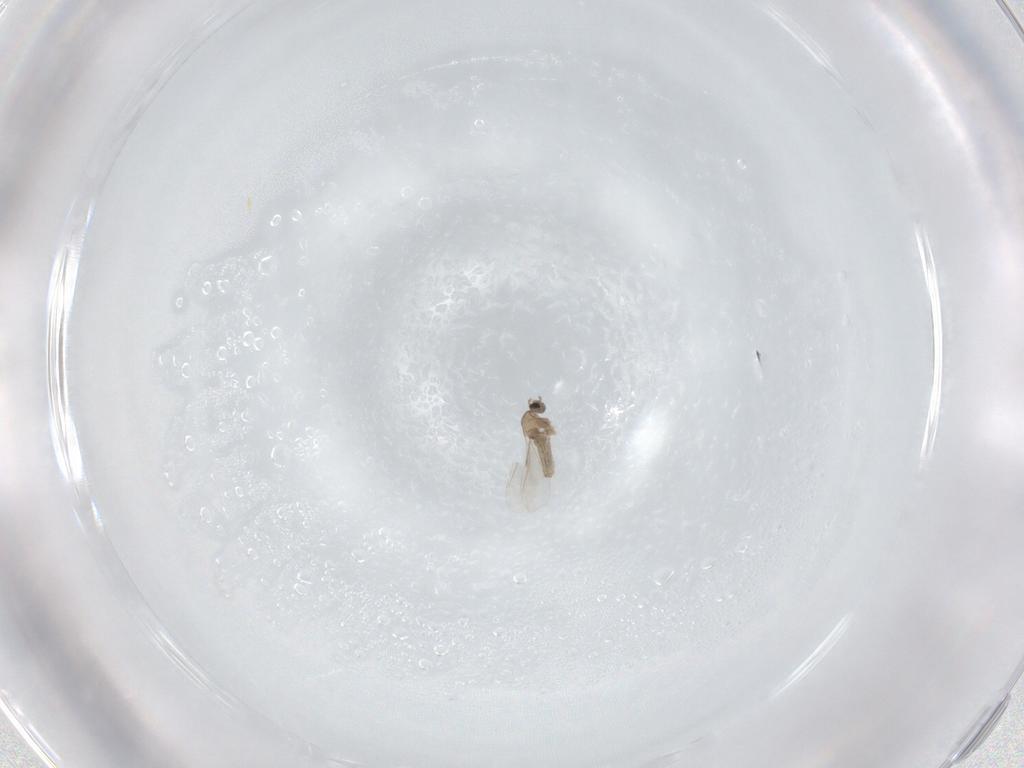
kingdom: Animalia
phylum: Arthropoda
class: Insecta
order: Diptera
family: Cecidomyiidae
